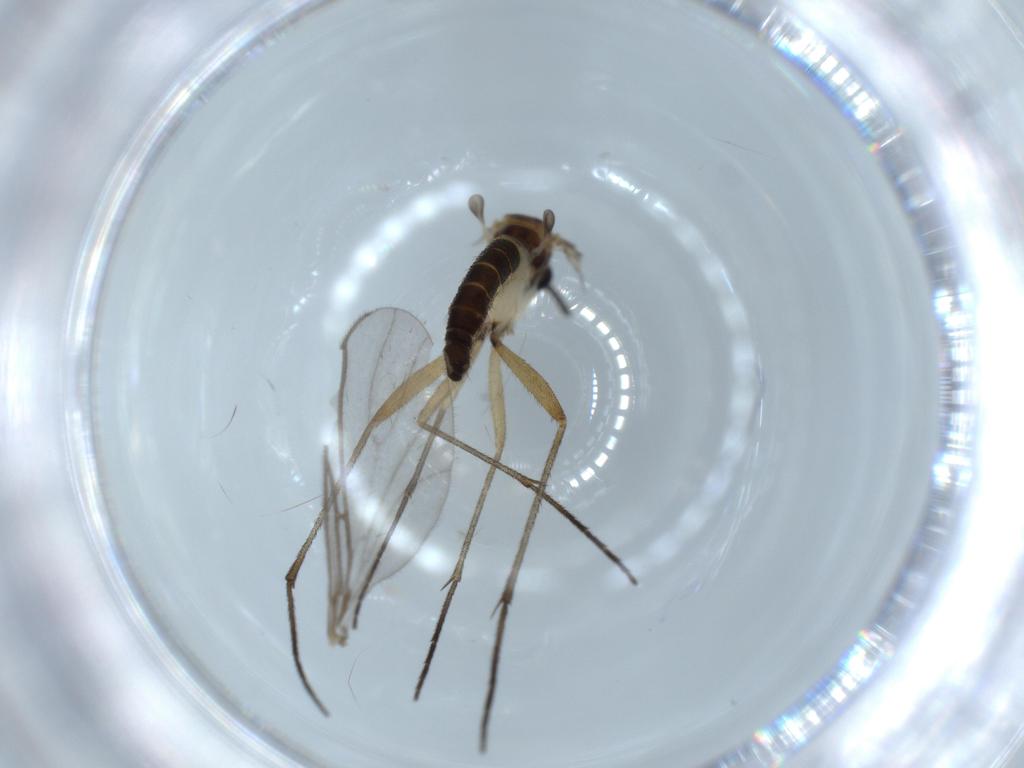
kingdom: Animalia
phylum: Arthropoda
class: Insecta
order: Diptera
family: Sciaridae
